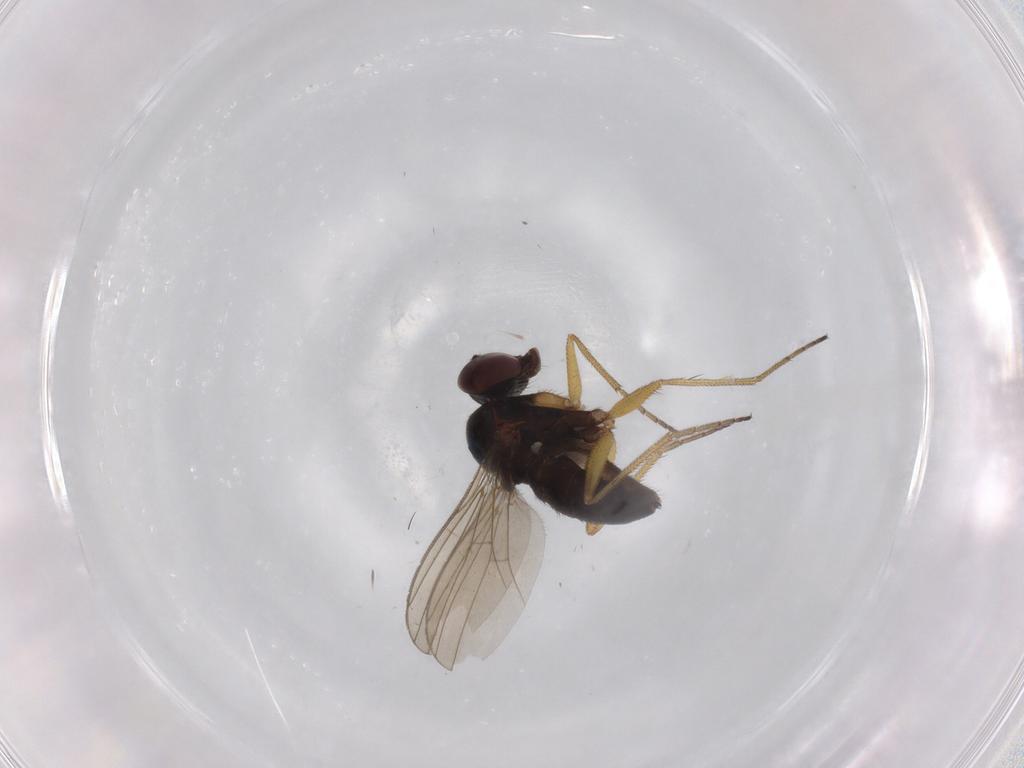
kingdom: Animalia
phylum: Arthropoda
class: Insecta
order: Diptera
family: Dolichopodidae
